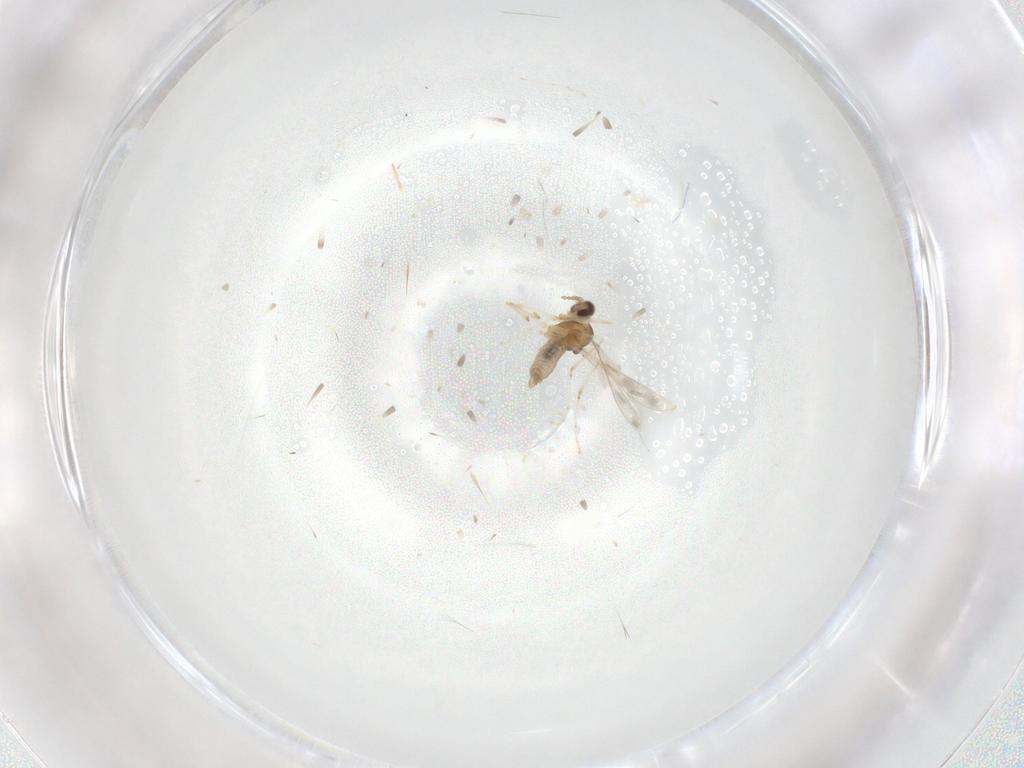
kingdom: Animalia
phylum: Arthropoda
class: Insecta
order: Diptera
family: Cecidomyiidae
